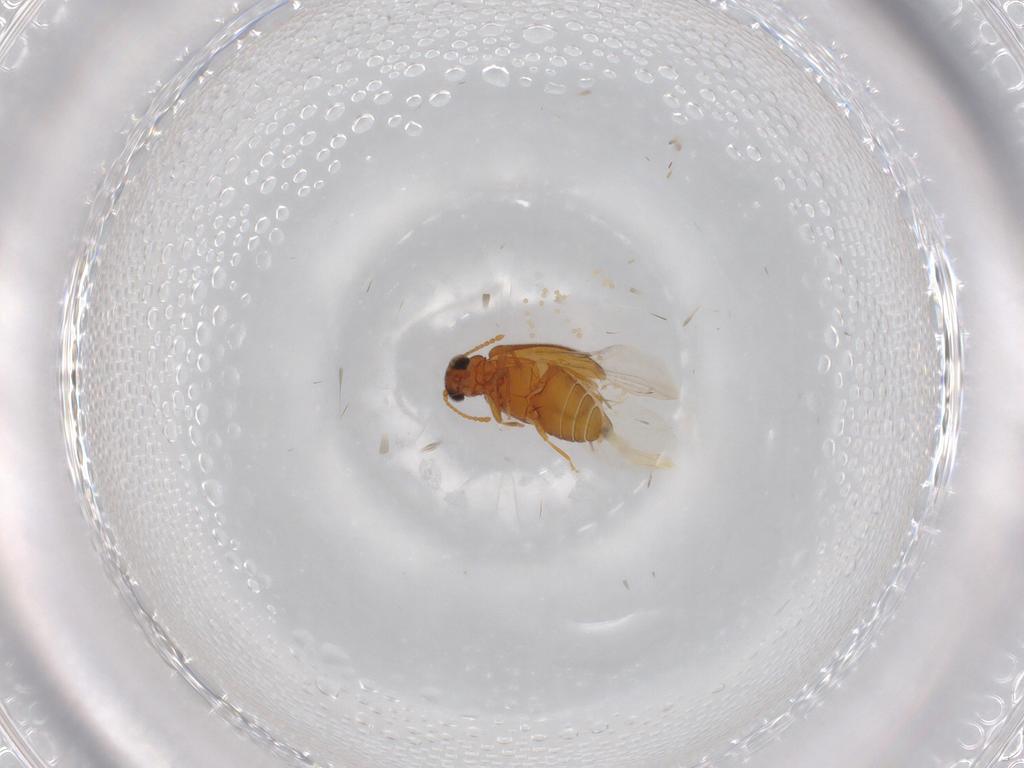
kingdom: Animalia
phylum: Arthropoda
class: Insecta
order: Coleoptera
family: Aderidae
